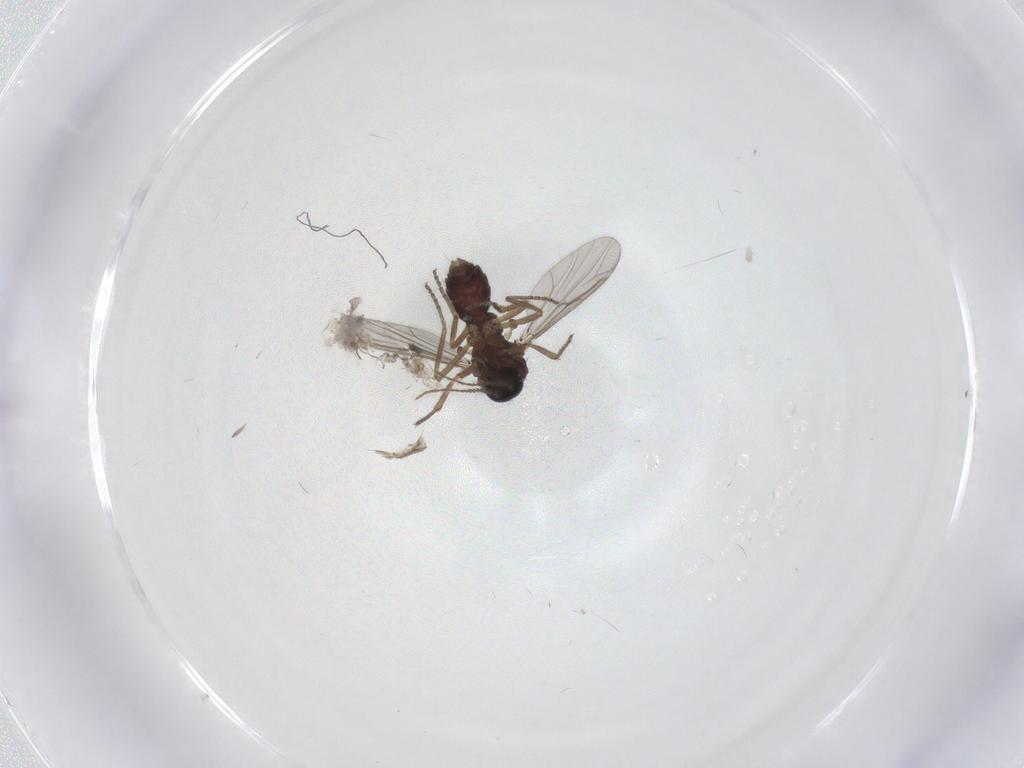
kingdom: Animalia
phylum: Arthropoda
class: Insecta
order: Diptera
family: Ceratopogonidae
